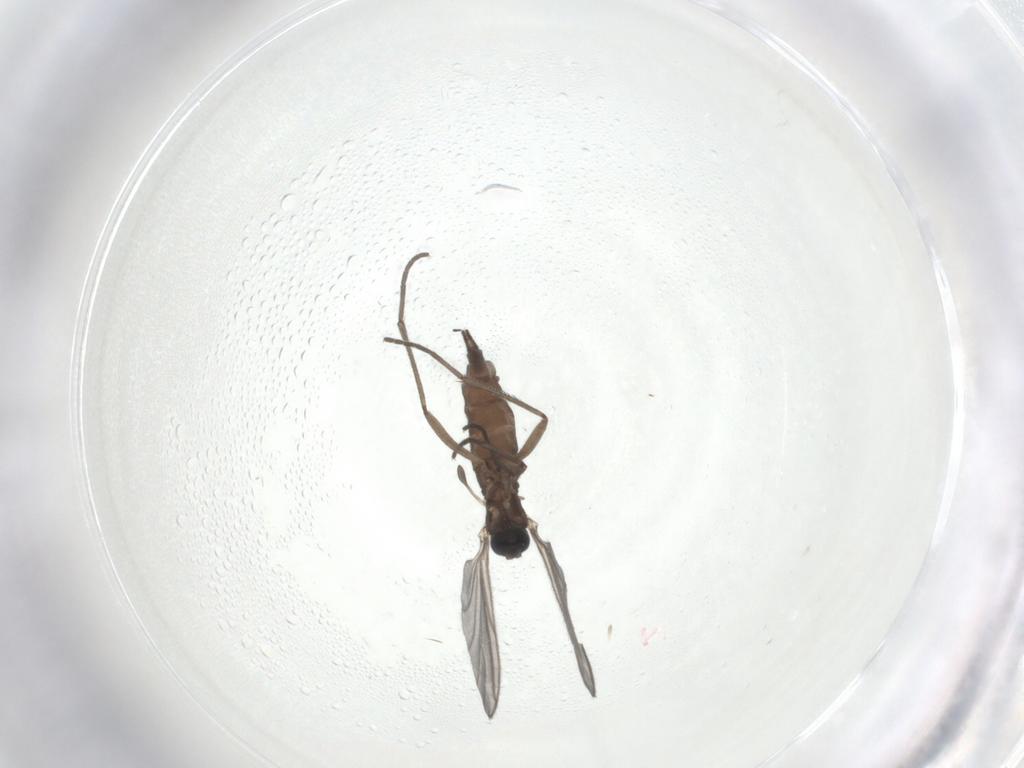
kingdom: Animalia
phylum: Arthropoda
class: Insecta
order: Diptera
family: Sciaridae
